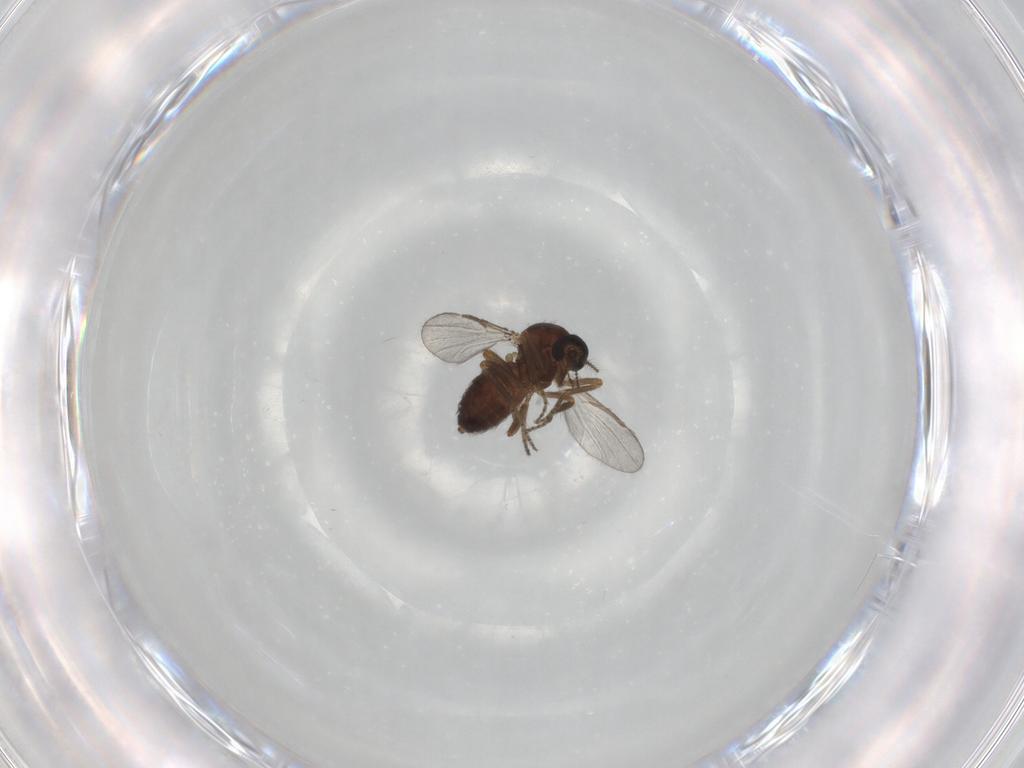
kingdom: Animalia
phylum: Arthropoda
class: Insecta
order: Diptera
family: Ceratopogonidae
